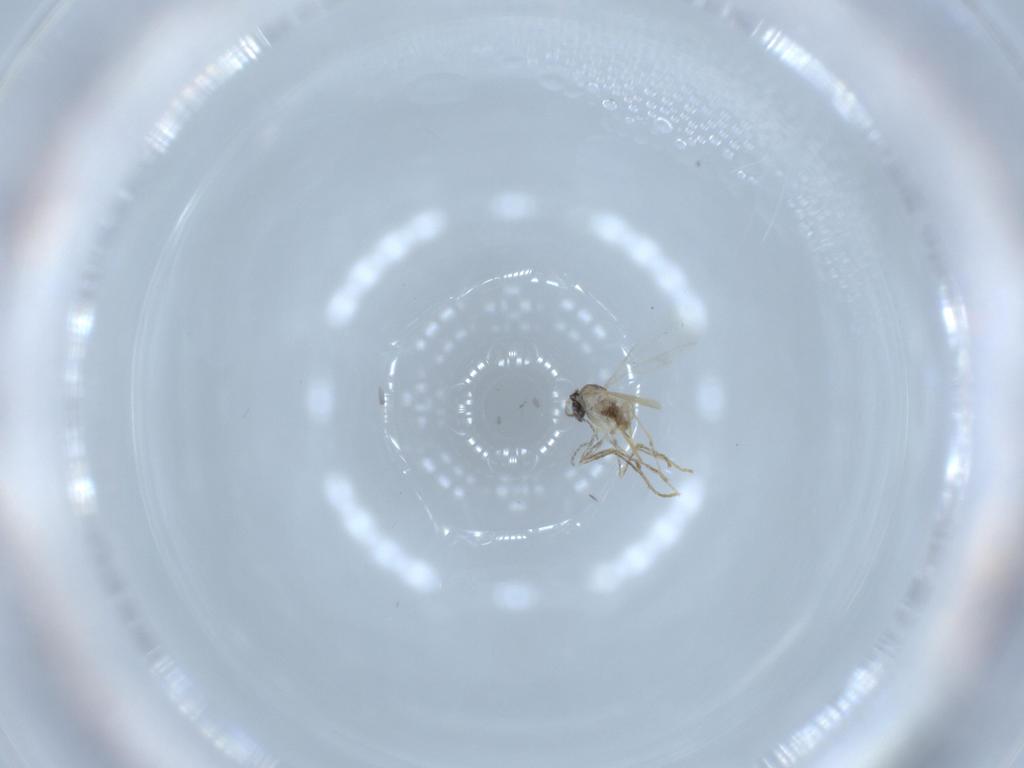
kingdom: Animalia
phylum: Arthropoda
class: Insecta
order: Diptera
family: Cecidomyiidae
